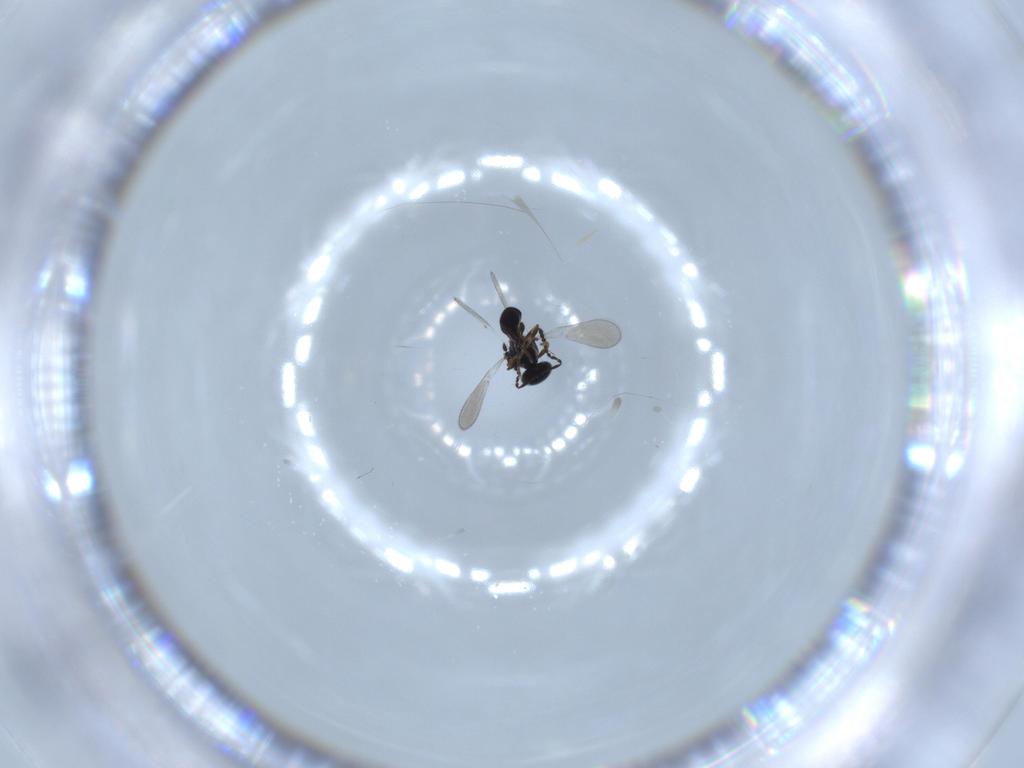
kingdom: Animalia
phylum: Arthropoda
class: Insecta
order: Hymenoptera
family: Platygastridae
